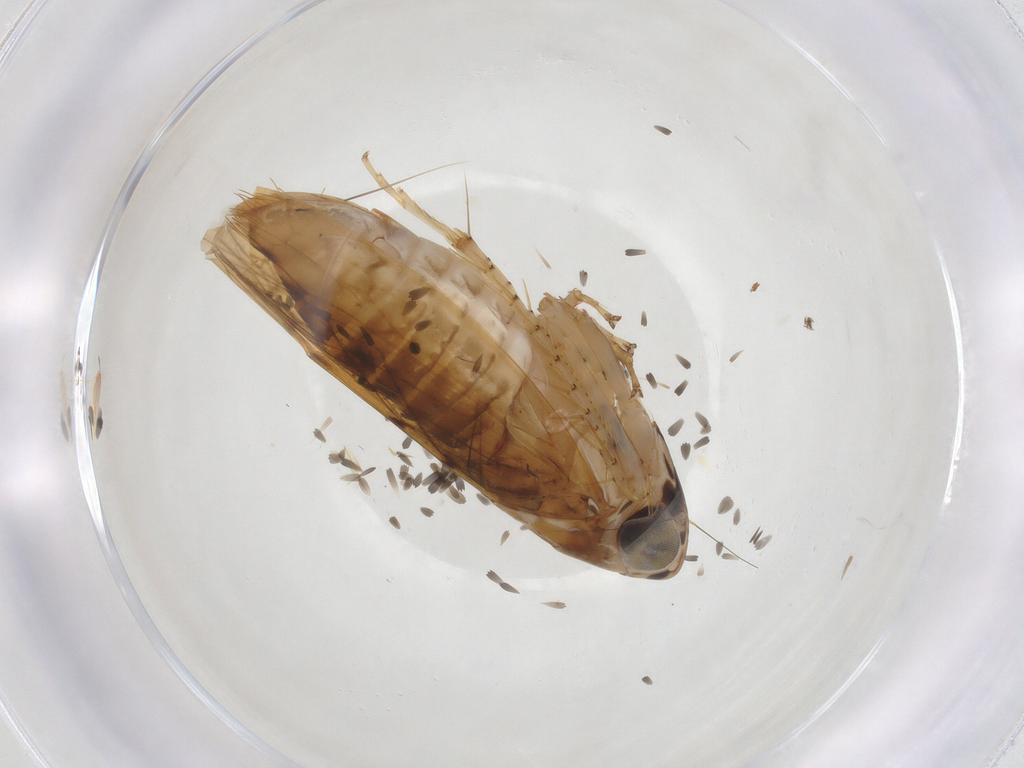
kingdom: Animalia
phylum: Arthropoda
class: Insecta
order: Hemiptera
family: Cicadellidae
